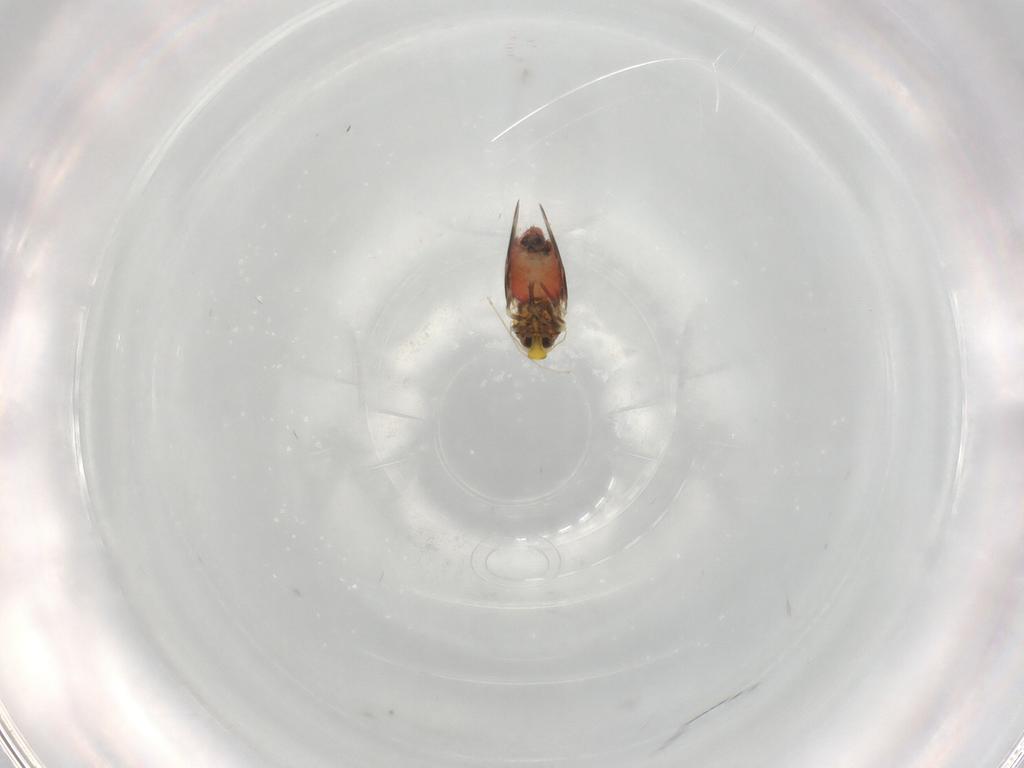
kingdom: Animalia
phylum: Arthropoda
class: Insecta
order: Hemiptera
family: Aleyrodidae
